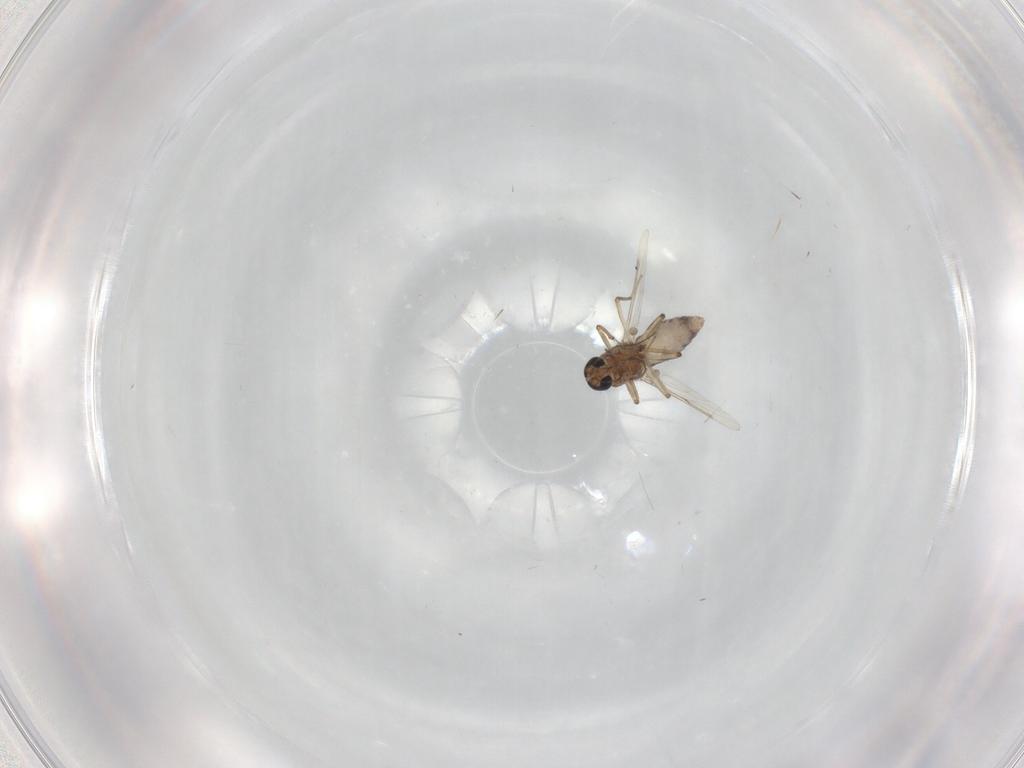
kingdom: Animalia
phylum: Arthropoda
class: Insecta
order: Diptera
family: Ceratopogonidae
